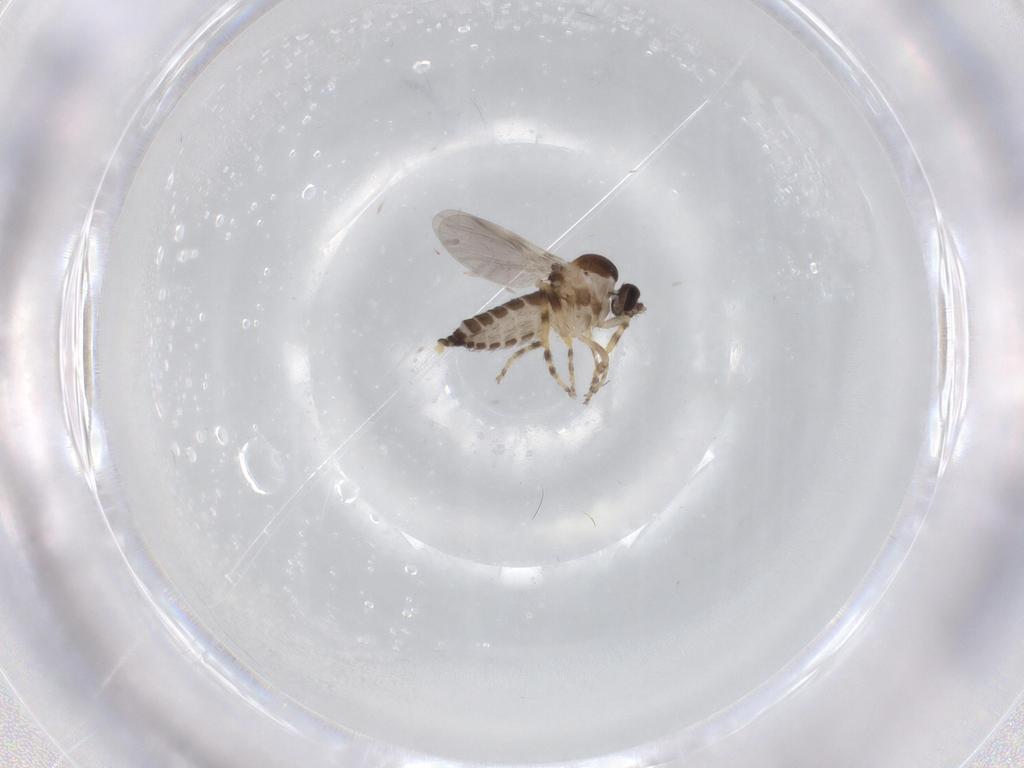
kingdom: Animalia
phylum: Arthropoda
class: Insecta
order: Diptera
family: Ceratopogonidae
